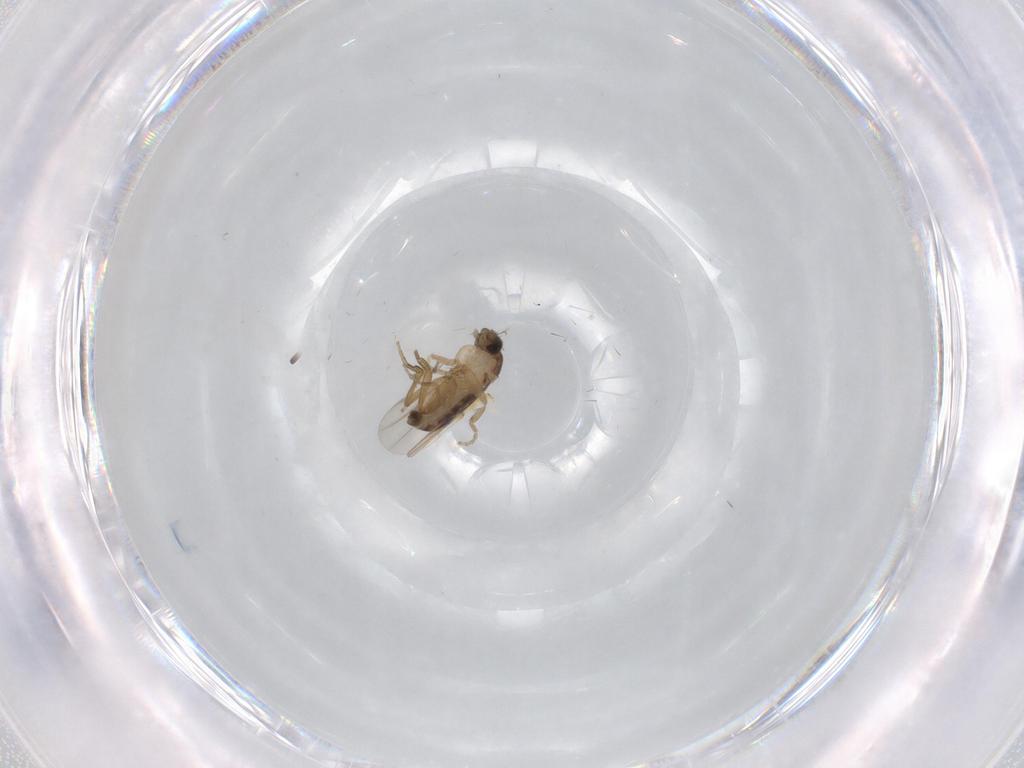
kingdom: Animalia
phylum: Arthropoda
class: Insecta
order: Diptera
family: Phoridae
